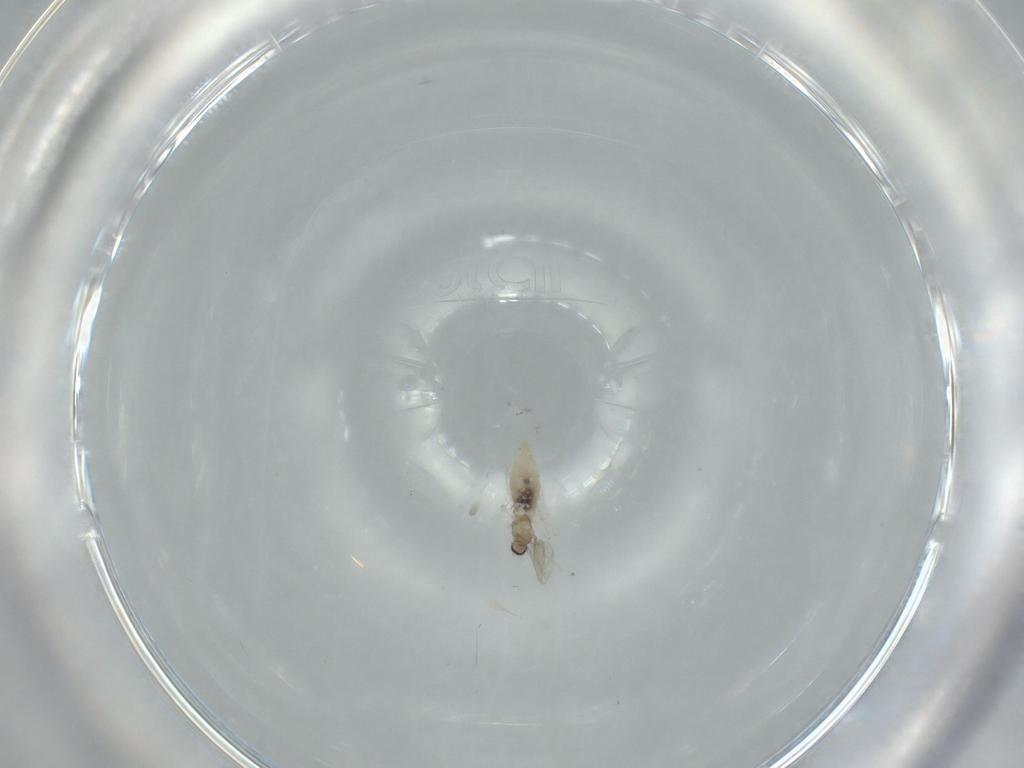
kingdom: Animalia
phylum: Arthropoda
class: Insecta
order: Diptera
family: Cecidomyiidae
